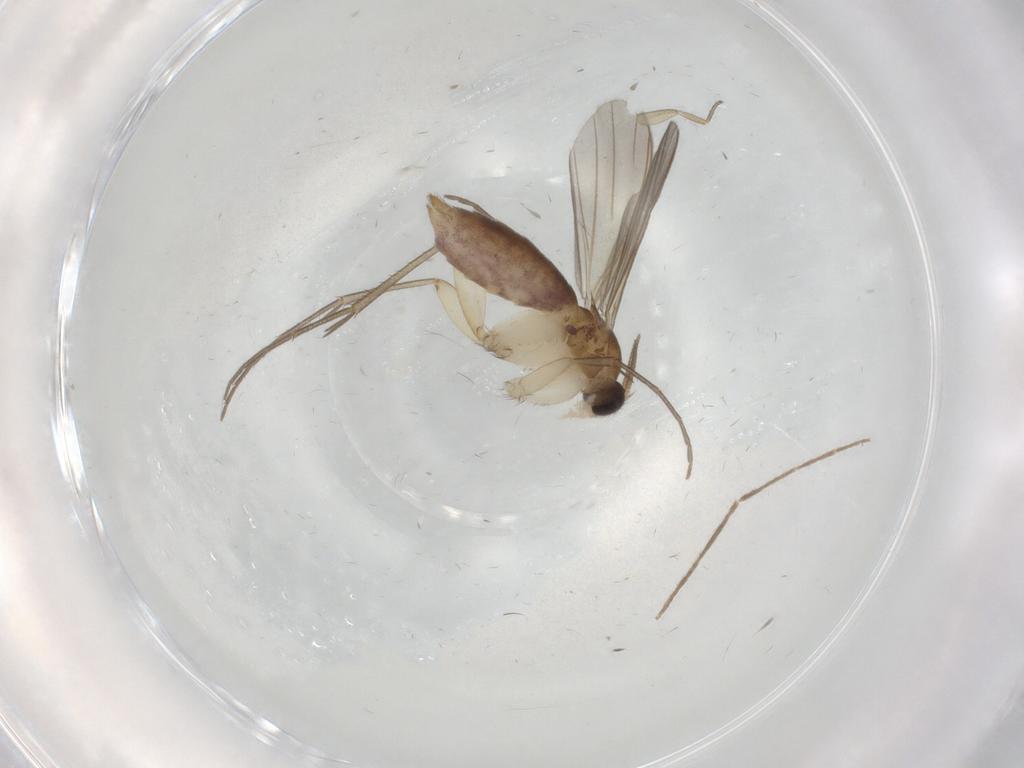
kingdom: Animalia
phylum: Arthropoda
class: Insecta
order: Diptera
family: Mycetophilidae
